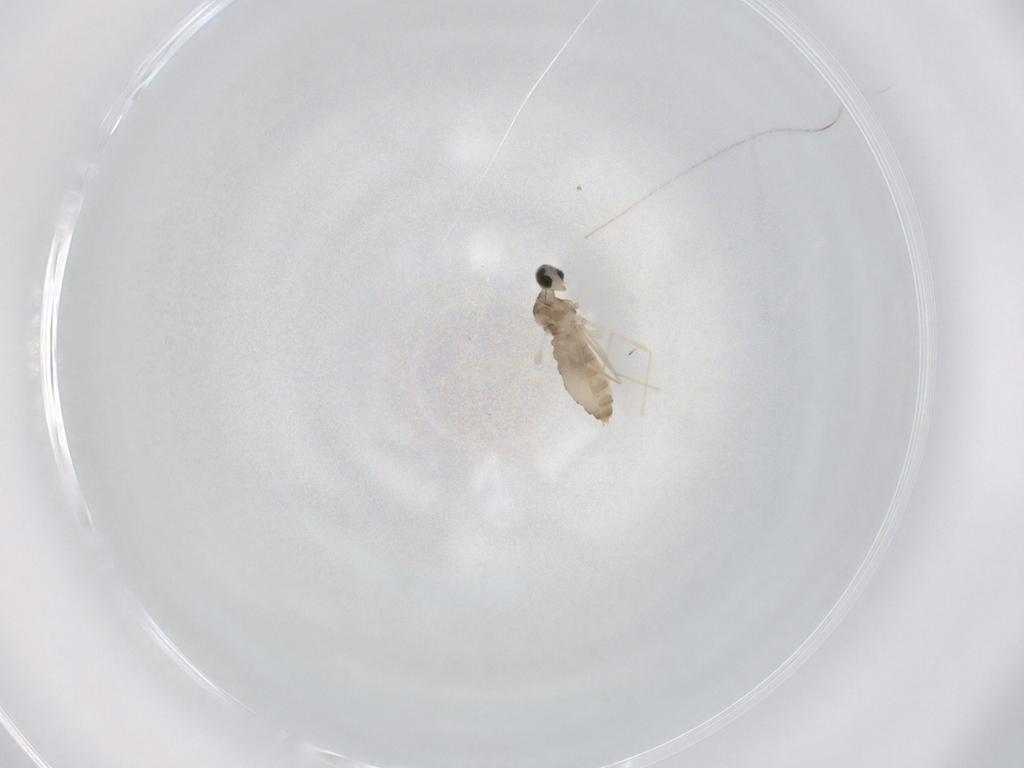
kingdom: Animalia
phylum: Arthropoda
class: Insecta
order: Diptera
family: Cecidomyiidae
